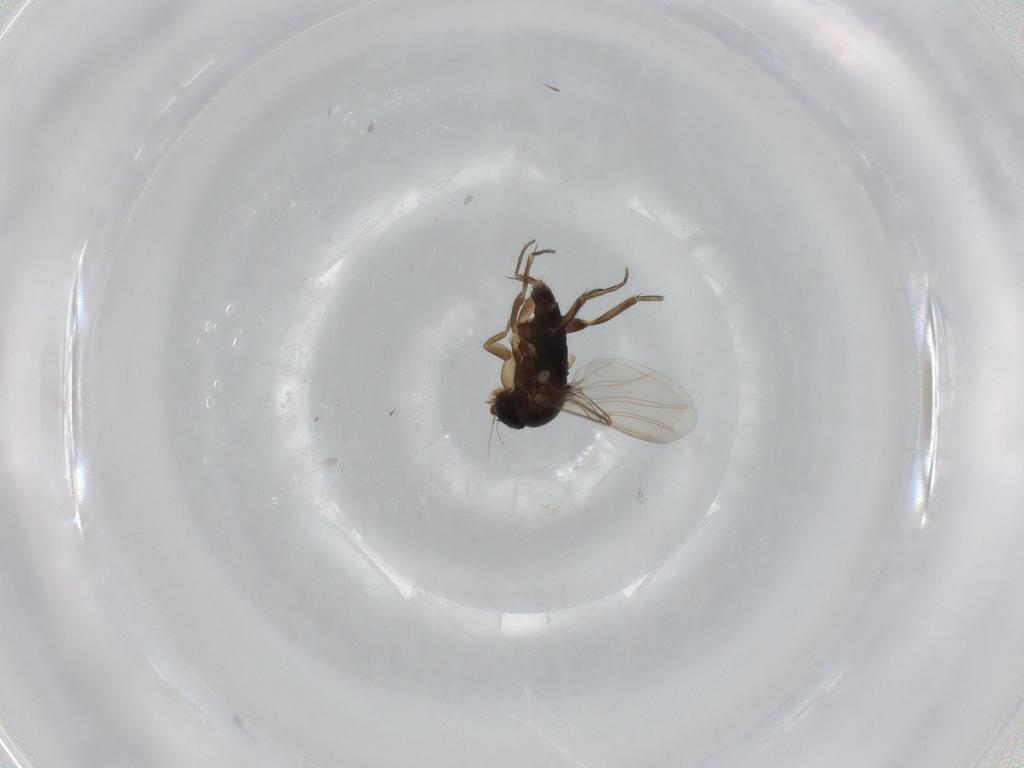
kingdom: Animalia
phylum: Arthropoda
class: Insecta
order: Diptera
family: Phoridae
